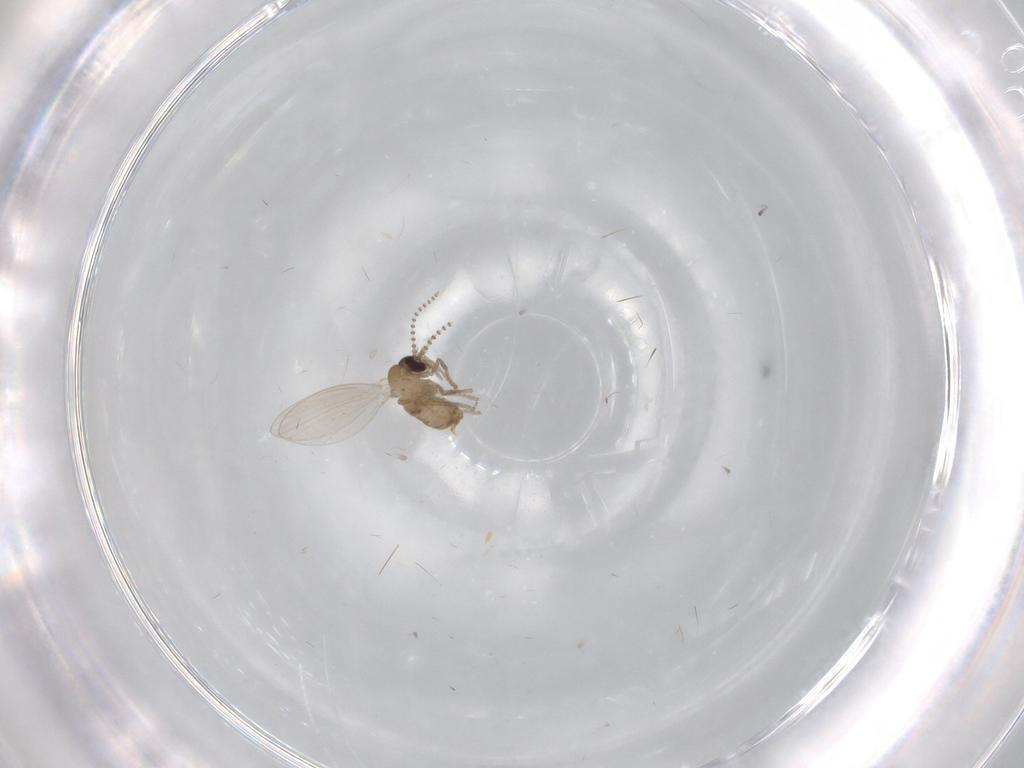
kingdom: Animalia
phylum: Arthropoda
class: Insecta
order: Diptera
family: Psychodidae
